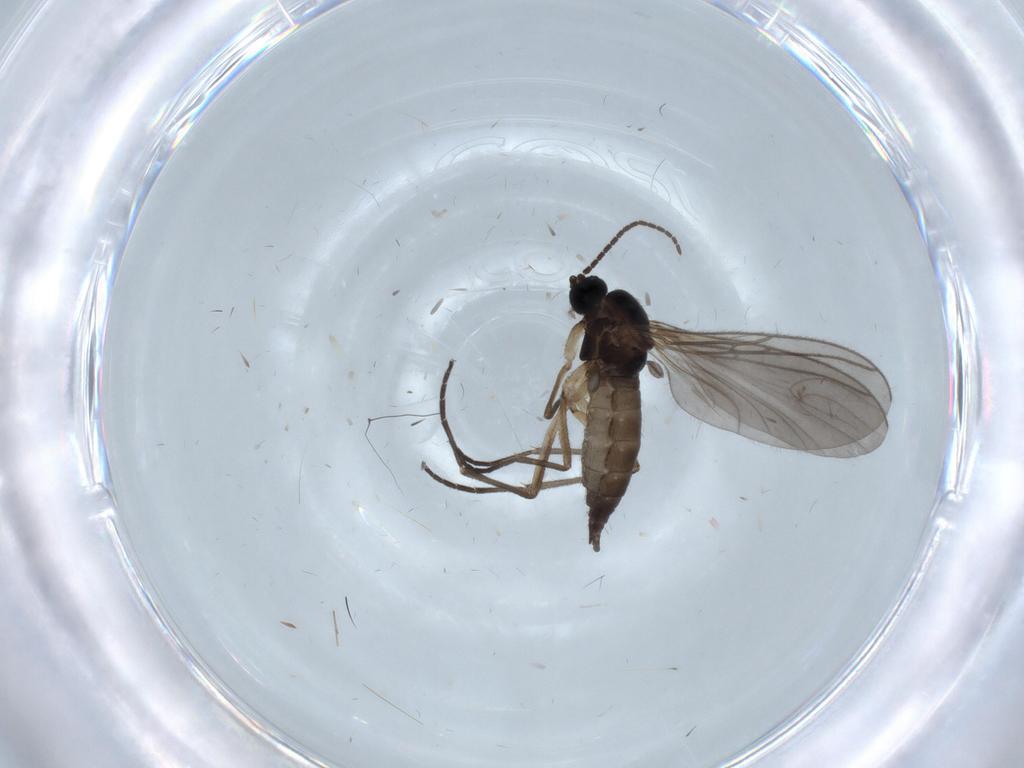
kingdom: Animalia
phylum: Arthropoda
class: Insecta
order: Diptera
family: Sciaridae
